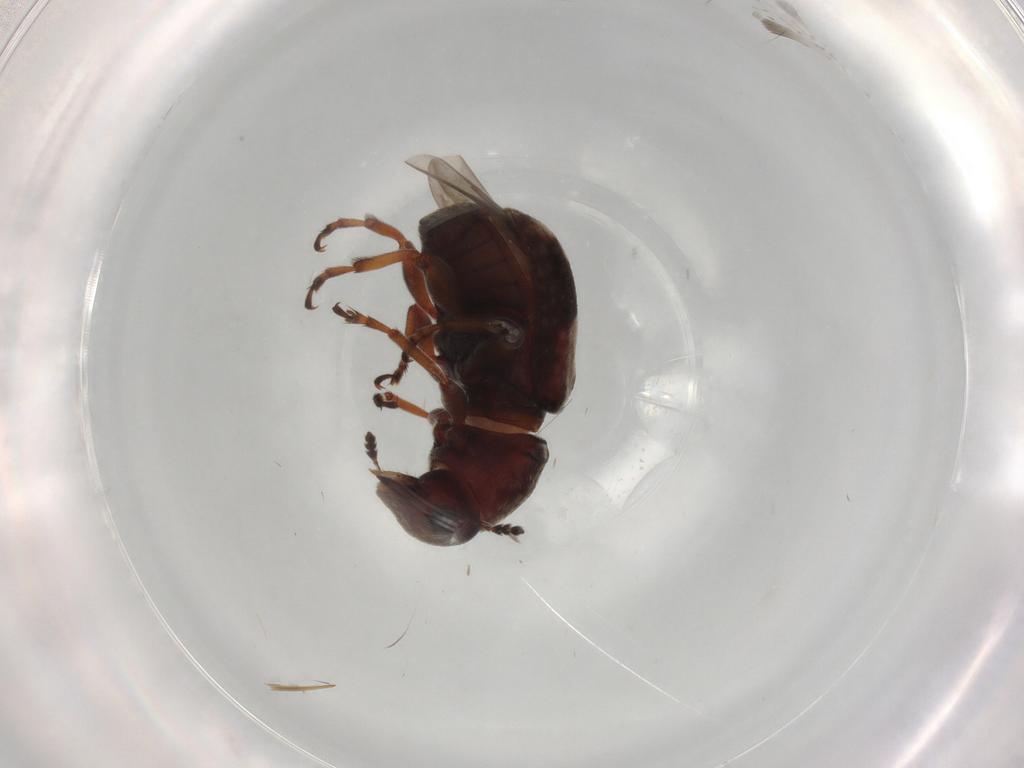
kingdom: Animalia
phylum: Arthropoda
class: Insecta
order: Coleoptera
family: Anthribidae
